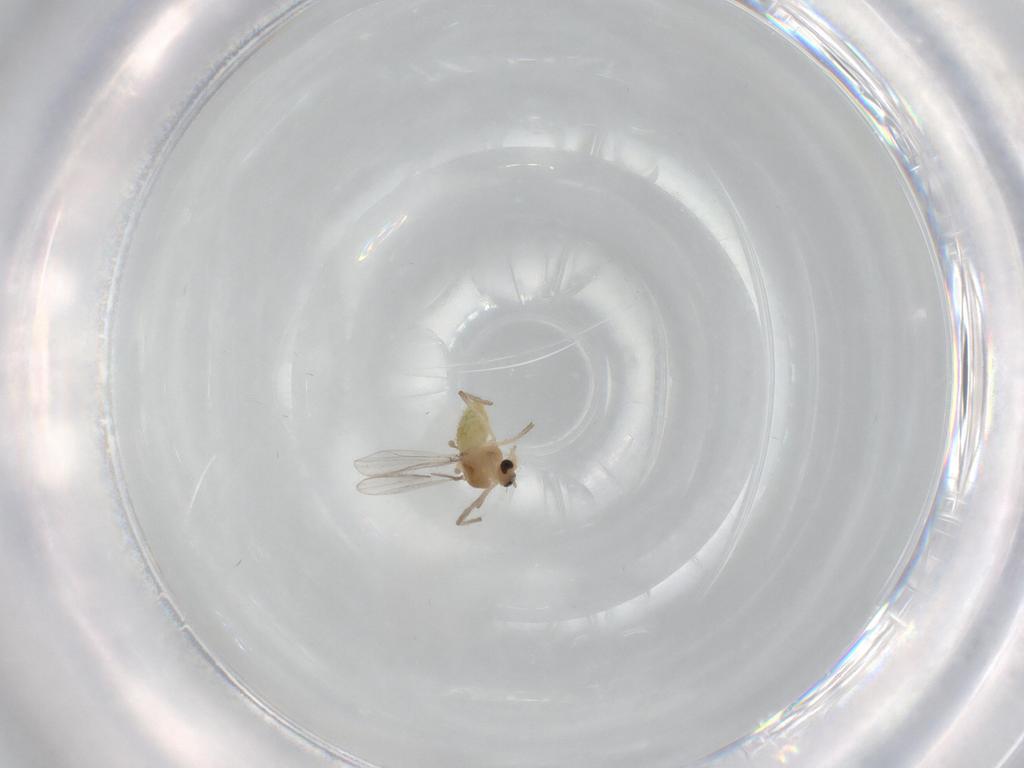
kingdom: Animalia
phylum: Arthropoda
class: Insecta
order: Diptera
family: Chironomidae
